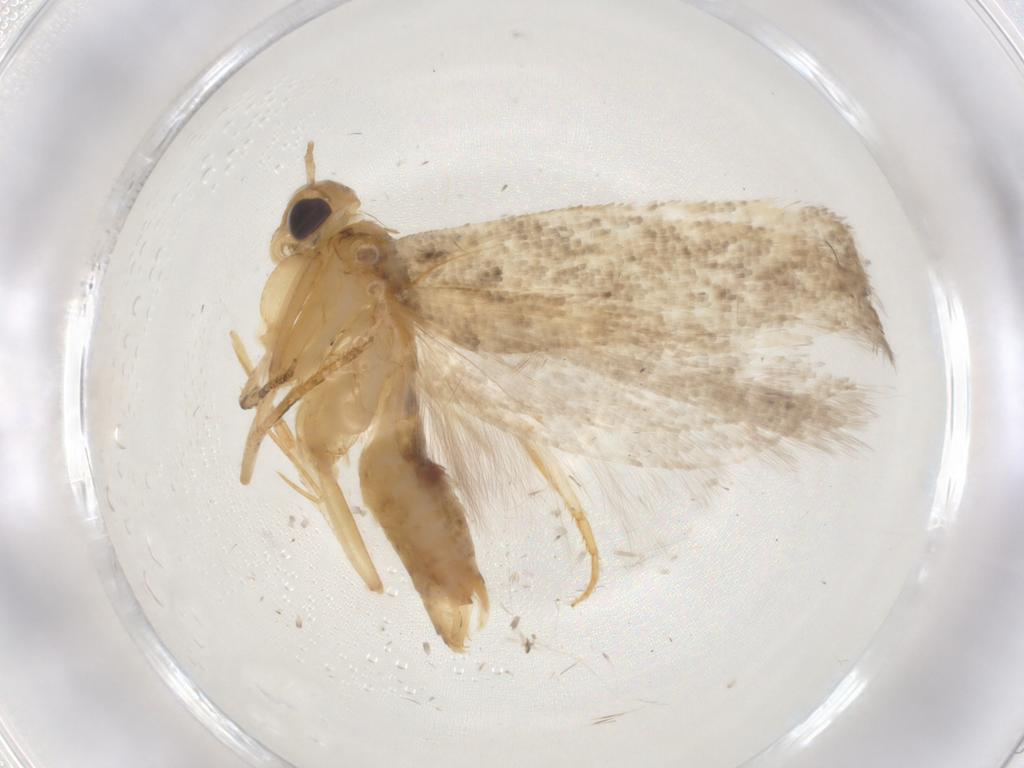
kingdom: Animalia
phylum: Arthropoda
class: Insecta
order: Lepidoptera
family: Gelechiidae
